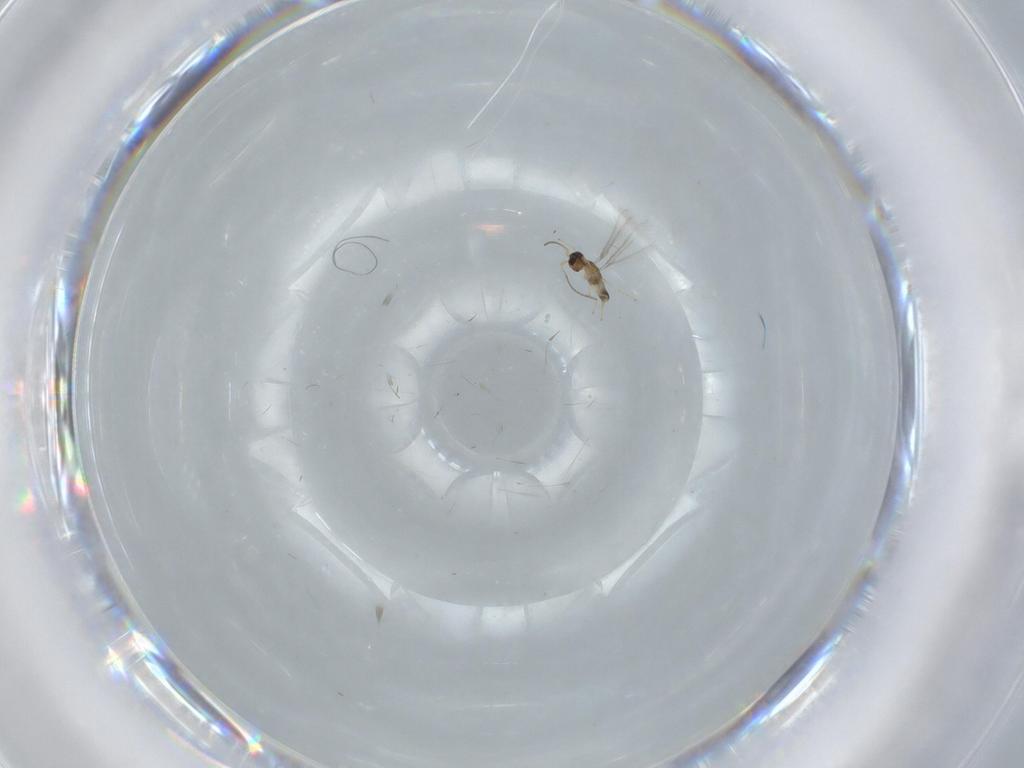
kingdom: Animalia
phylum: Arthropoda
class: Insecta
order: Hymenoptera
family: Mymaridae
